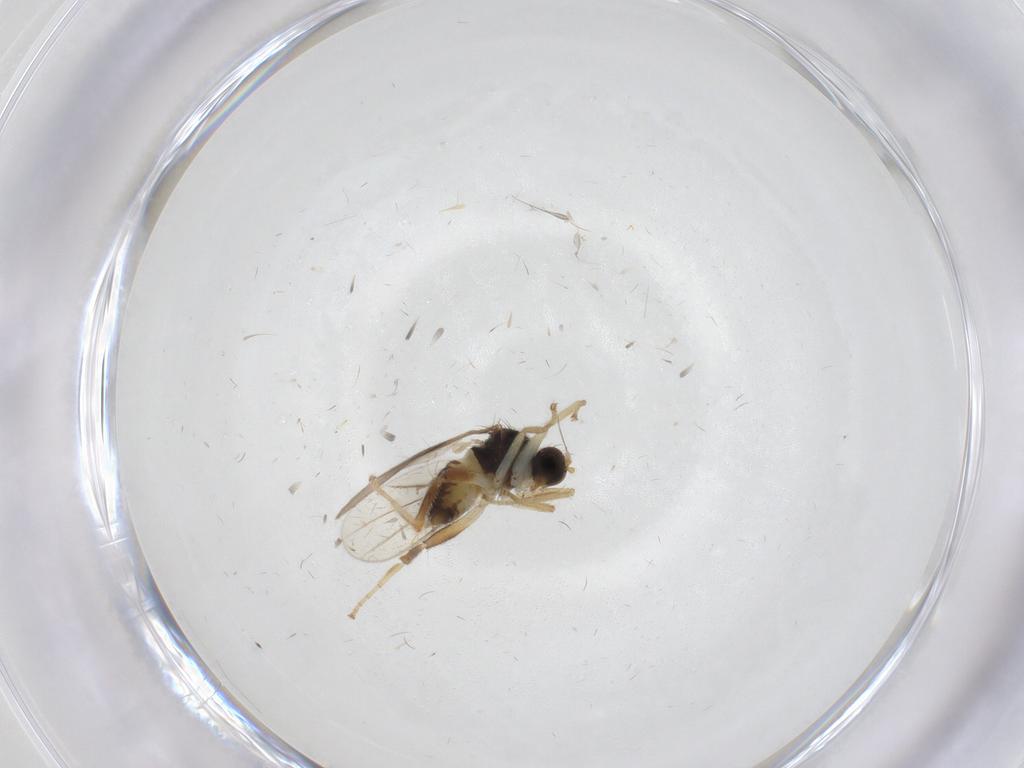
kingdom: Animalia
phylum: Arthropoda
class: Insecta
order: Diptera
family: Hybotidae
